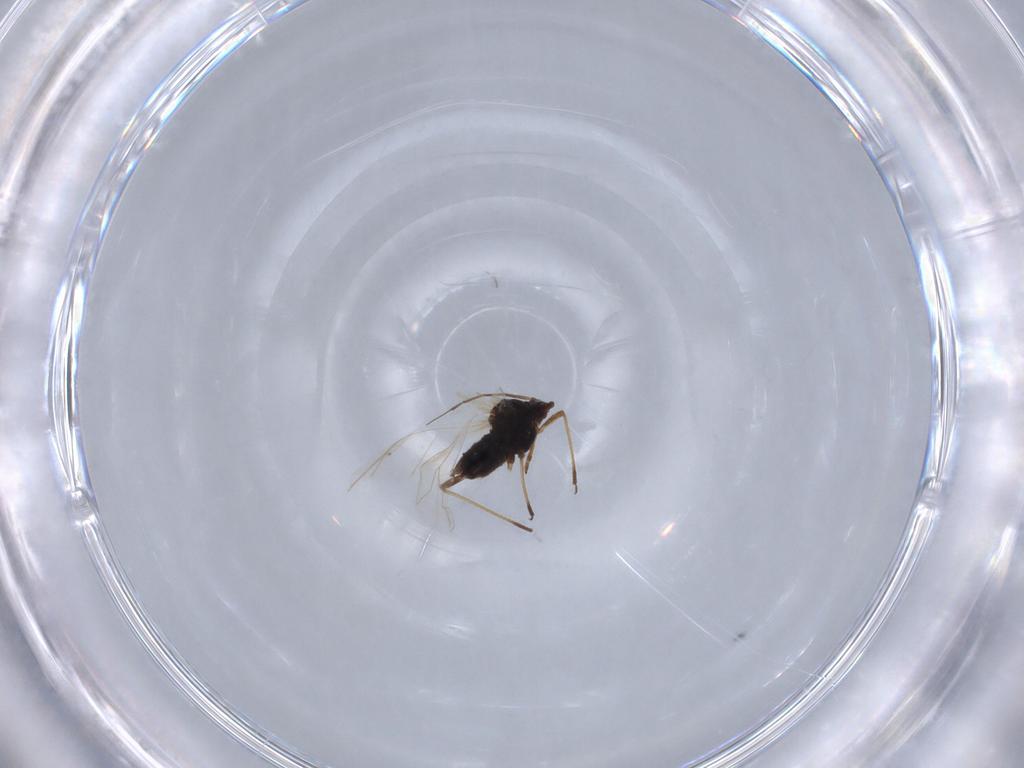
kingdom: Animalia
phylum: Arthropoda
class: Insecta
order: Hemiptera
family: Aphididae
